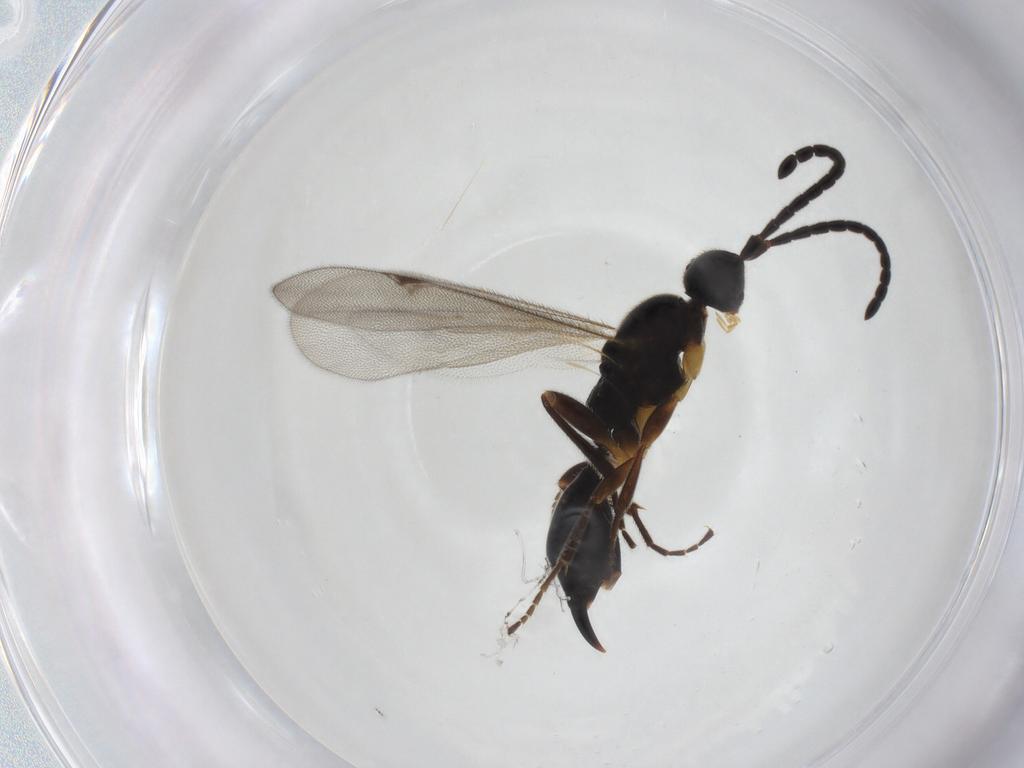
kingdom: Animalia
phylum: Arthropoda
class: Insecta
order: Hymenoptera
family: Proctotrupidae
